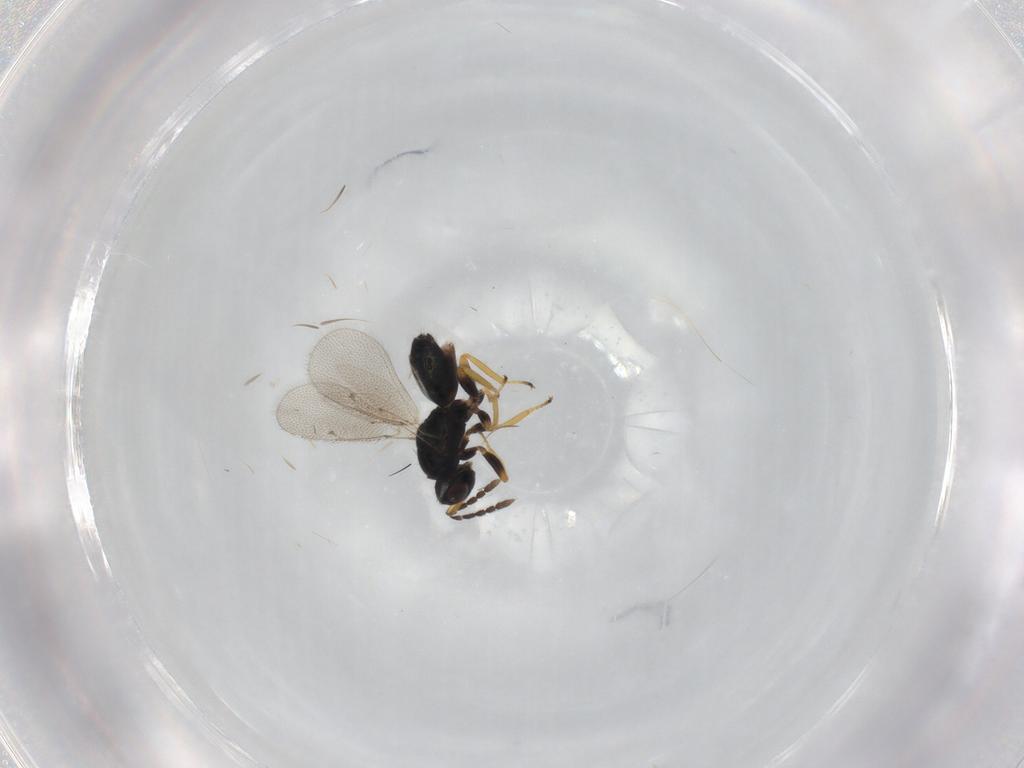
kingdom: Animalia
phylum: Arthropoda
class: Insecta
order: Hymenoptera
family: Eulophidae
